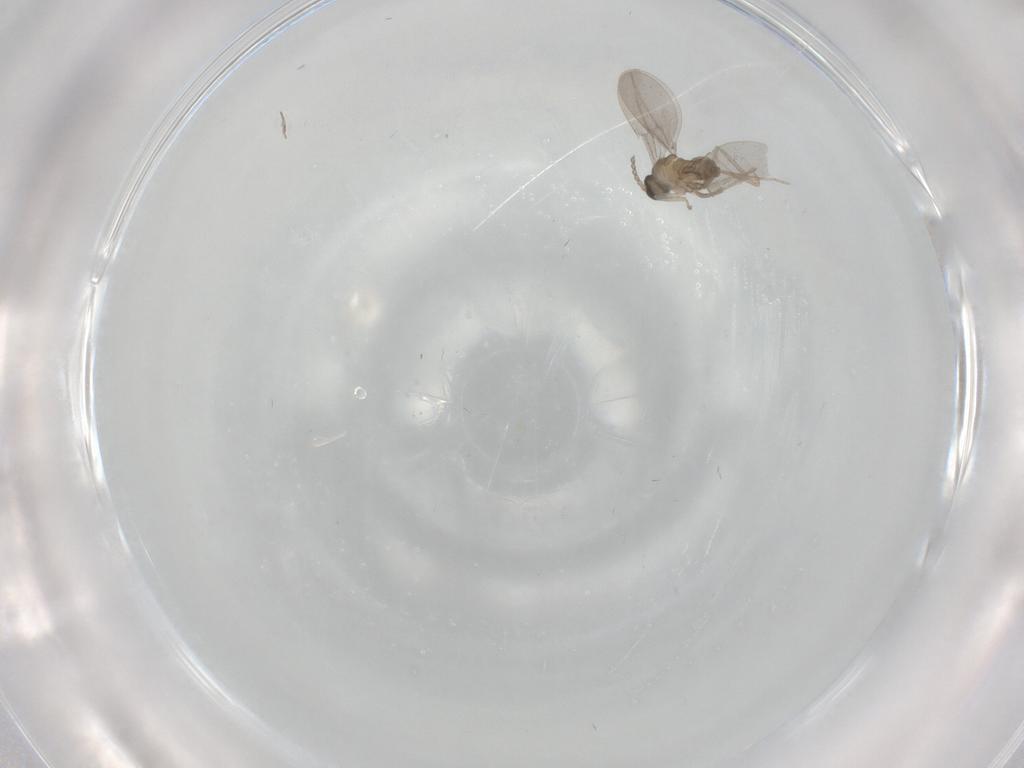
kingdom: Animalia
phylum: Arthropoda
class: Insecta
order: Diptera
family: Cecidomyiidae
